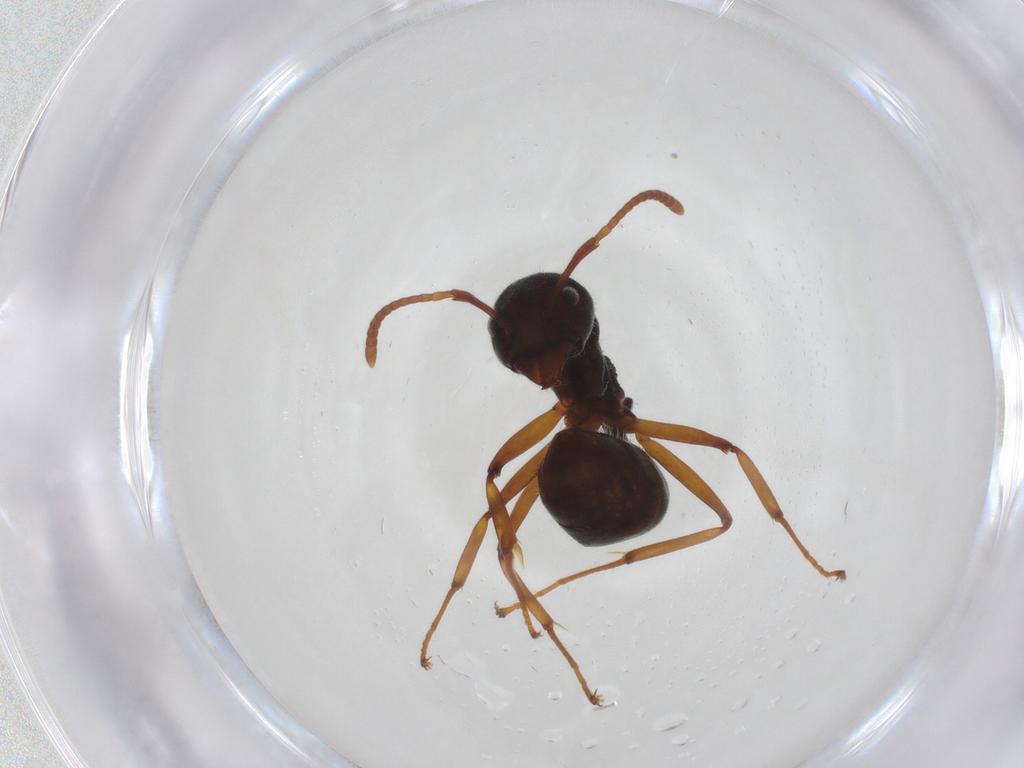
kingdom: Animalia
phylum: Arthropoda
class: Insecta
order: Hymenoptera
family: Formicidae
